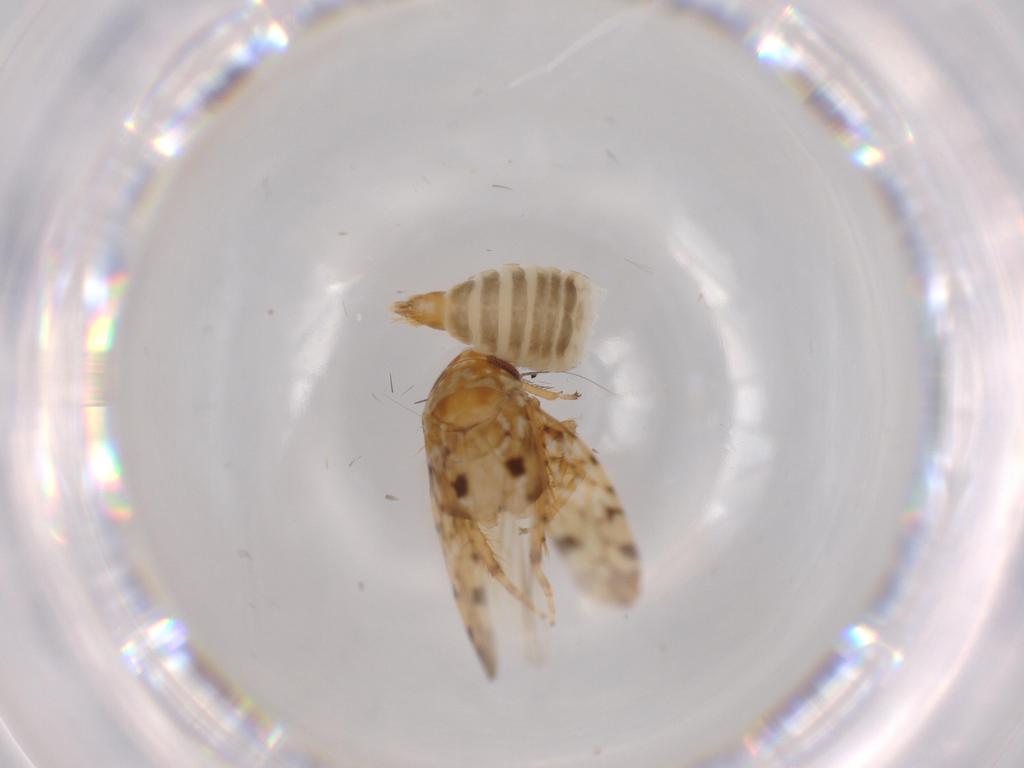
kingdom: Animalia
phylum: Arthropoda
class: Insecta
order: Hemiptera
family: Cicadellidae
